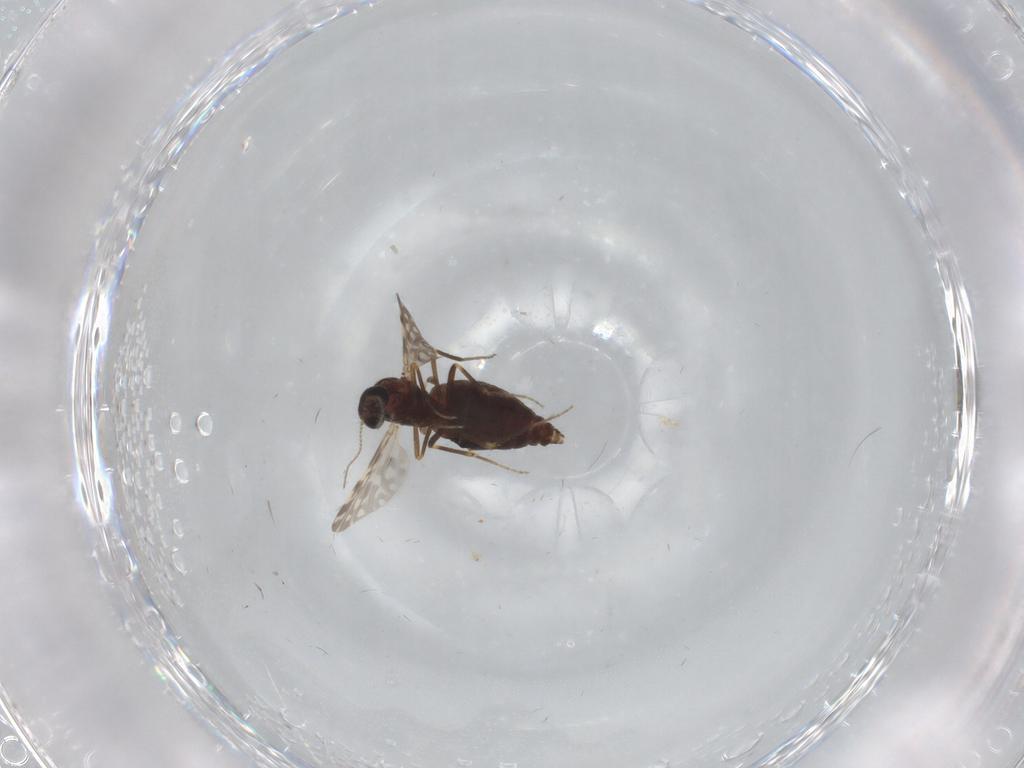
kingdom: Animalia
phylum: Arthropoda
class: Insecta
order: Diptera
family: Ceratopogonidae
